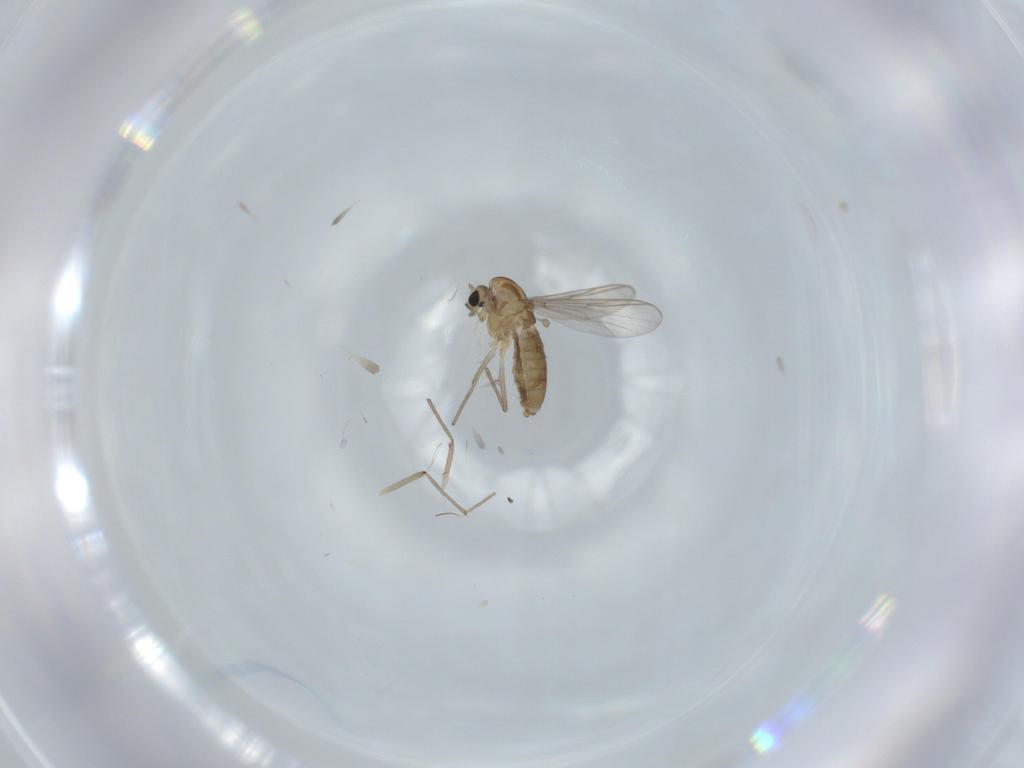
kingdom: Animalia
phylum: Arthropoda
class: Insecta
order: Diptera
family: Chironomidae
